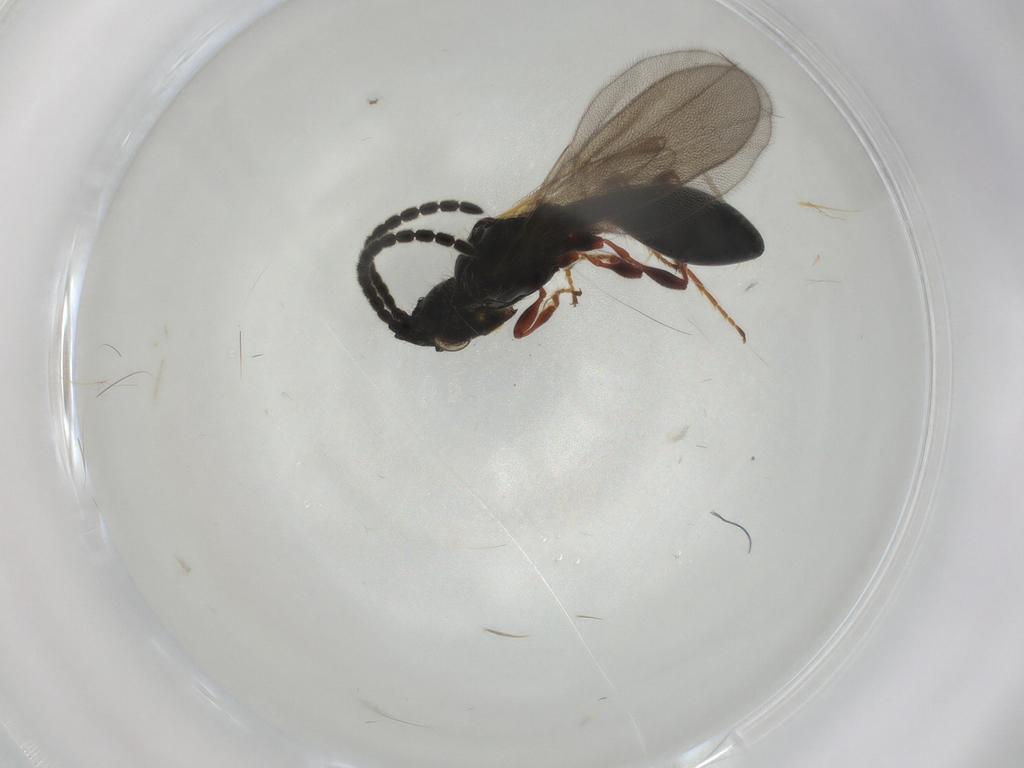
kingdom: Animalia
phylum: Arthropoda
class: Insecta
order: Hymenoptera
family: Diapriidae
